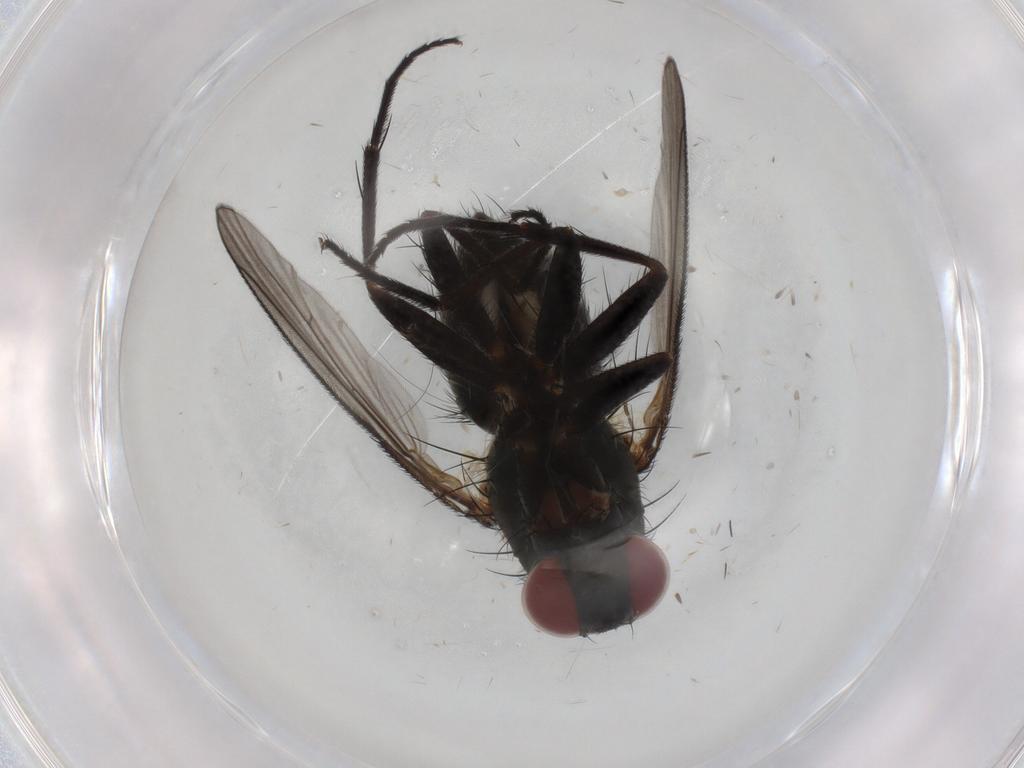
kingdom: Animalia
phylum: Arthropoda
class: Insecta
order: Diptera
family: Muscidae
